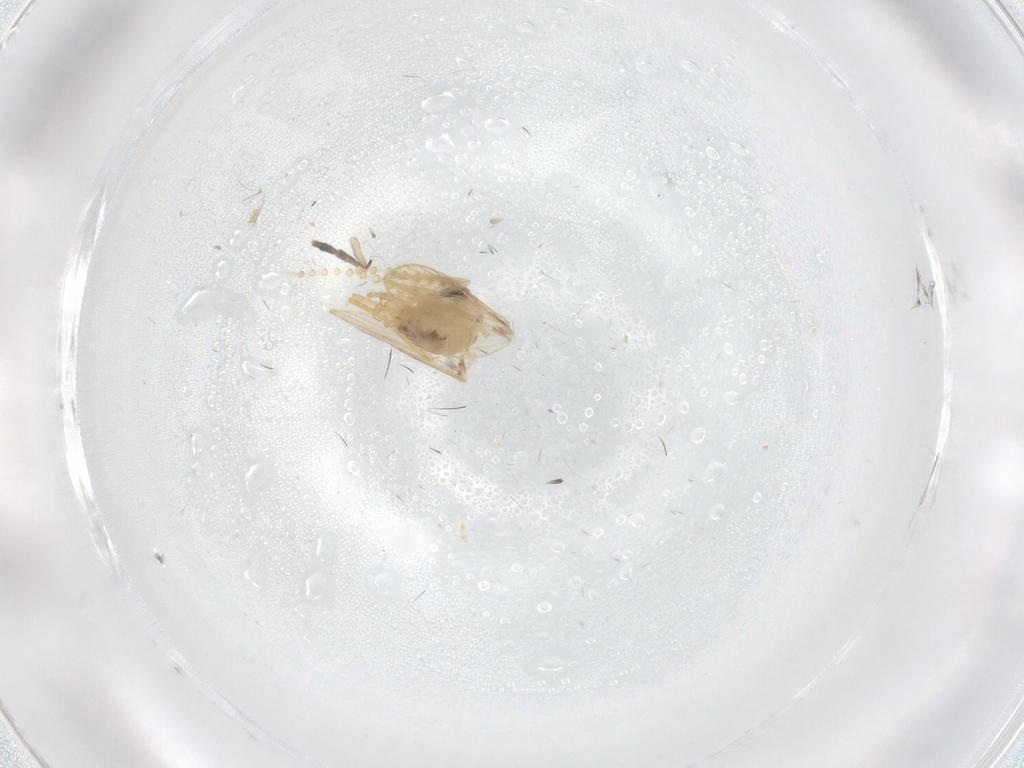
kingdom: Animalia
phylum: Arthropoda
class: Insecta
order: Diptera
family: Psychodidae
